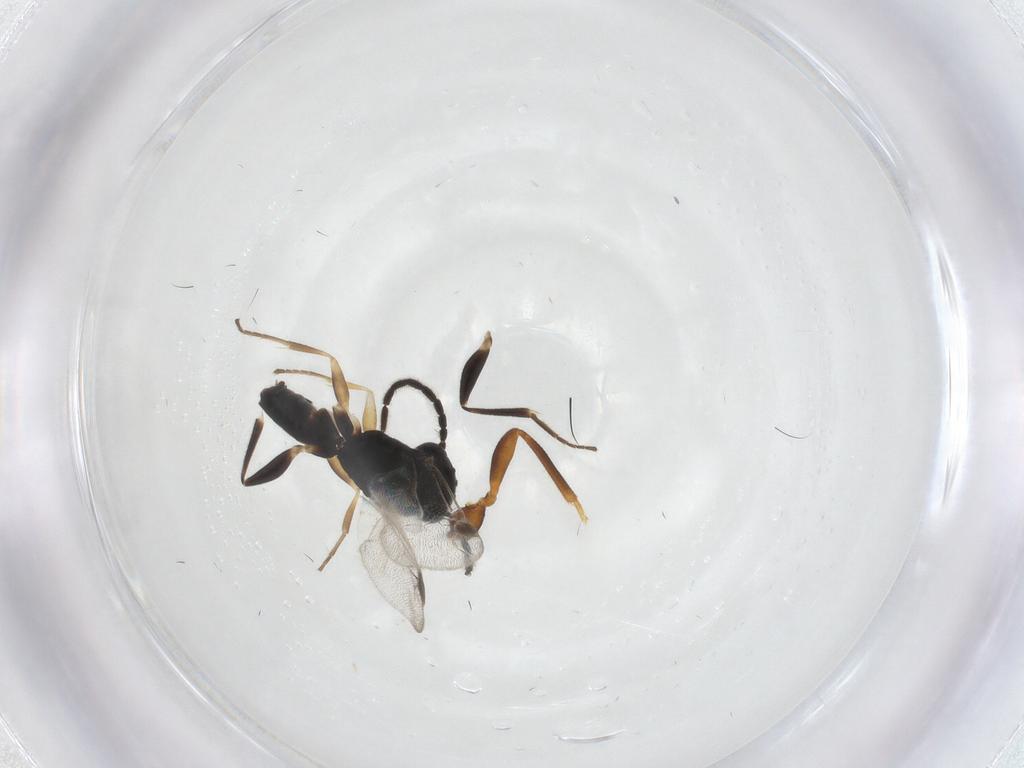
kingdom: Animalia
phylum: Arthropoda
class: Insecta
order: Hymenoptera
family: Dryinidae
